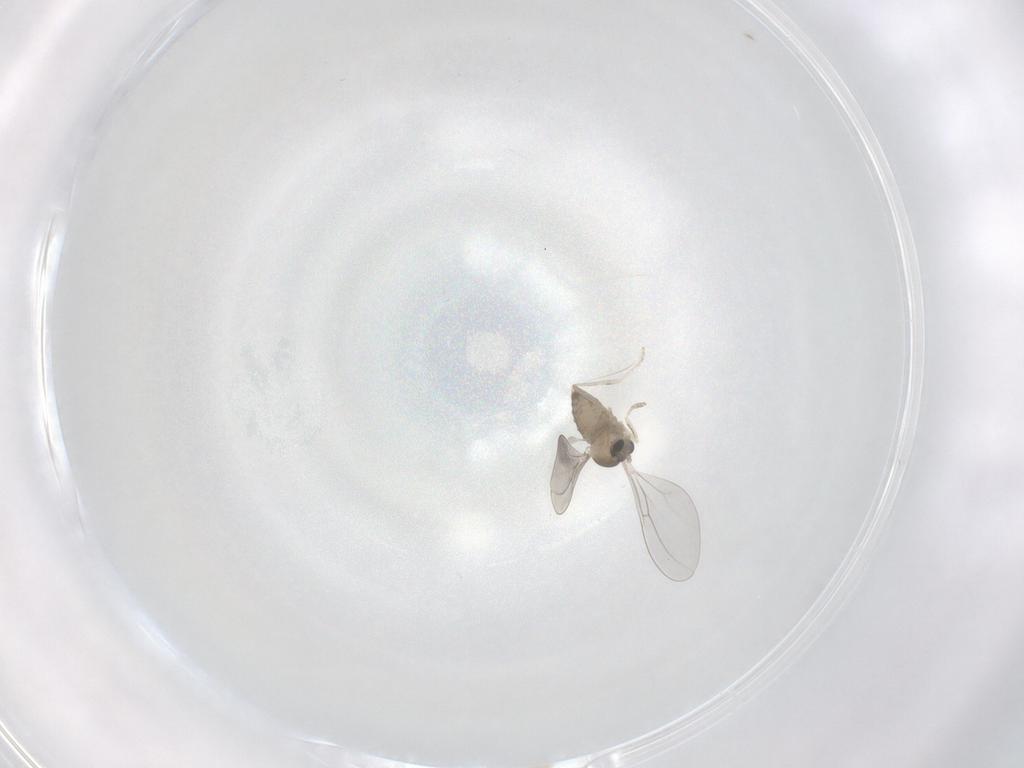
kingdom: Animalia
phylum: Arthropoda
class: Insecta
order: Diptera
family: Cecidomyiidae
